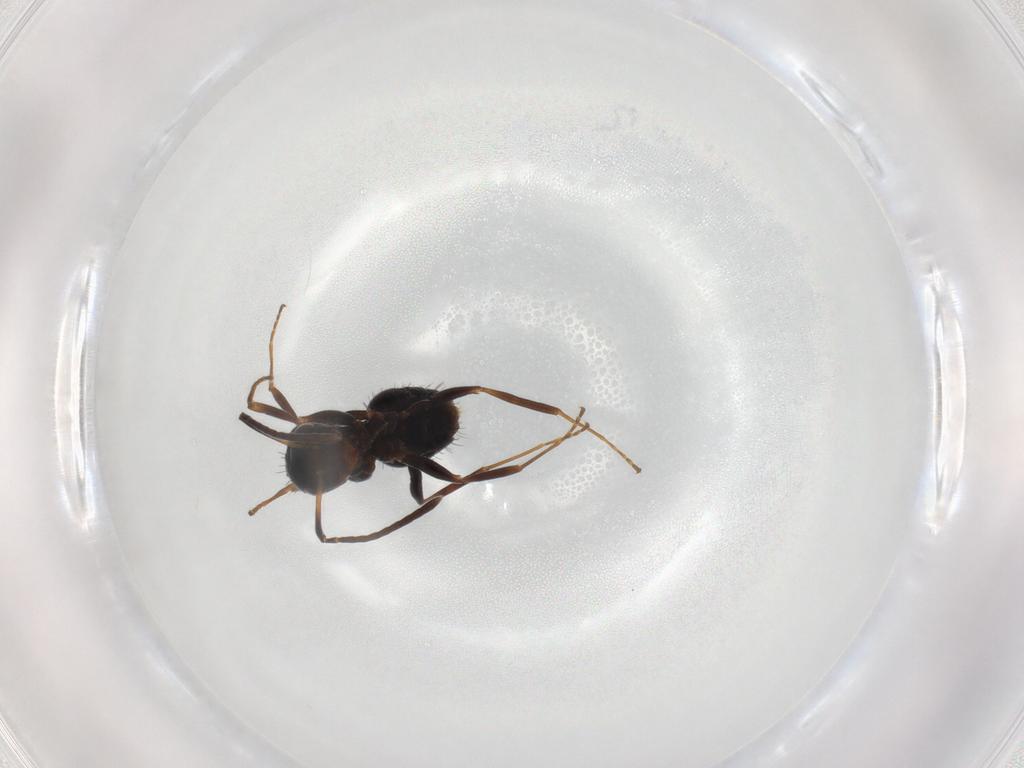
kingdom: Animalia
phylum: Arthropoda
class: Insecta
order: Hymenoptera
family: Formicidae
